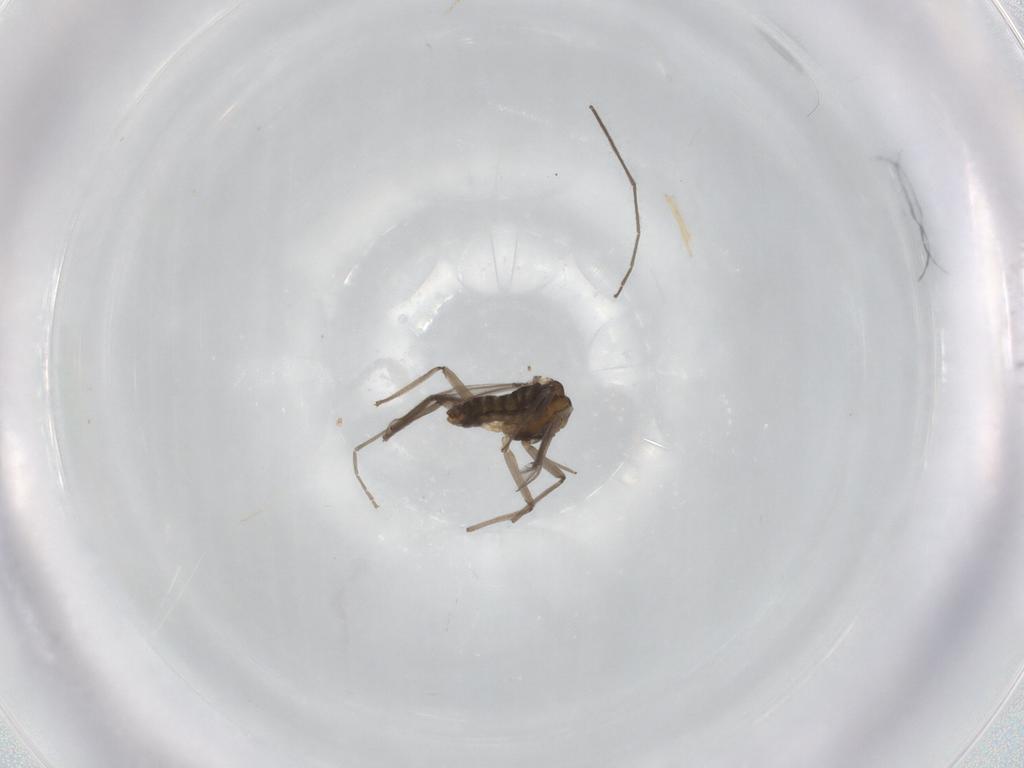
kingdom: Animalia
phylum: Arthropoda
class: Insecta
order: Diptera
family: Chironomidae
